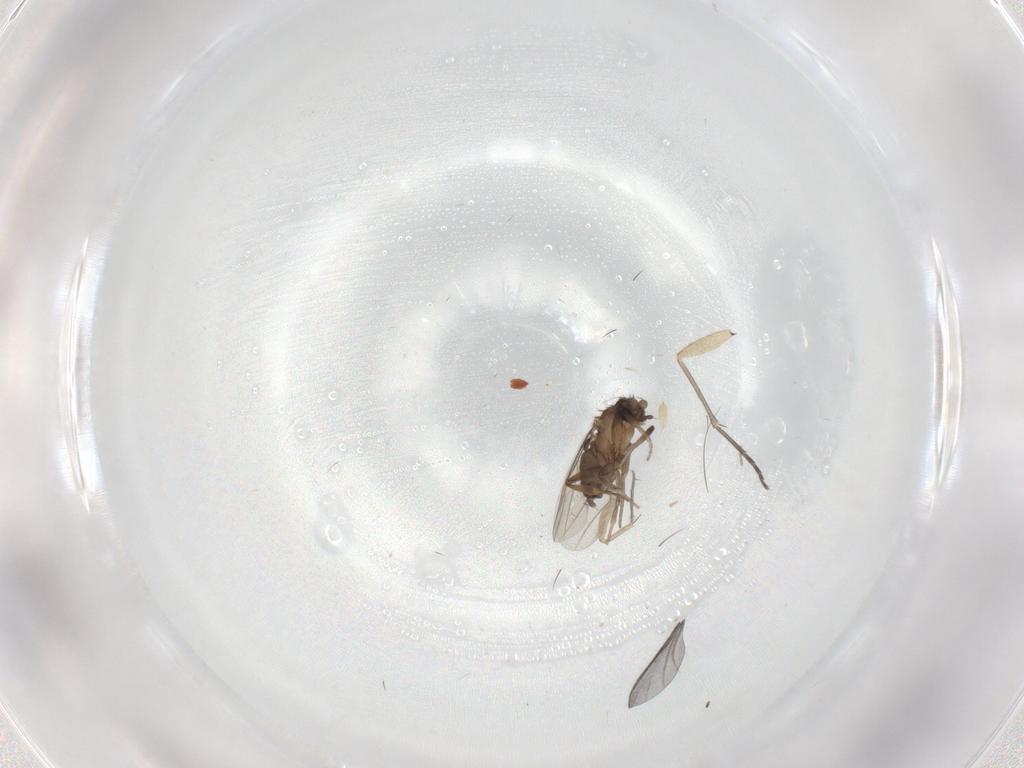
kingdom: Animalia
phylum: Arthropoda
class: Insecta
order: Diptera
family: Sciaridae
